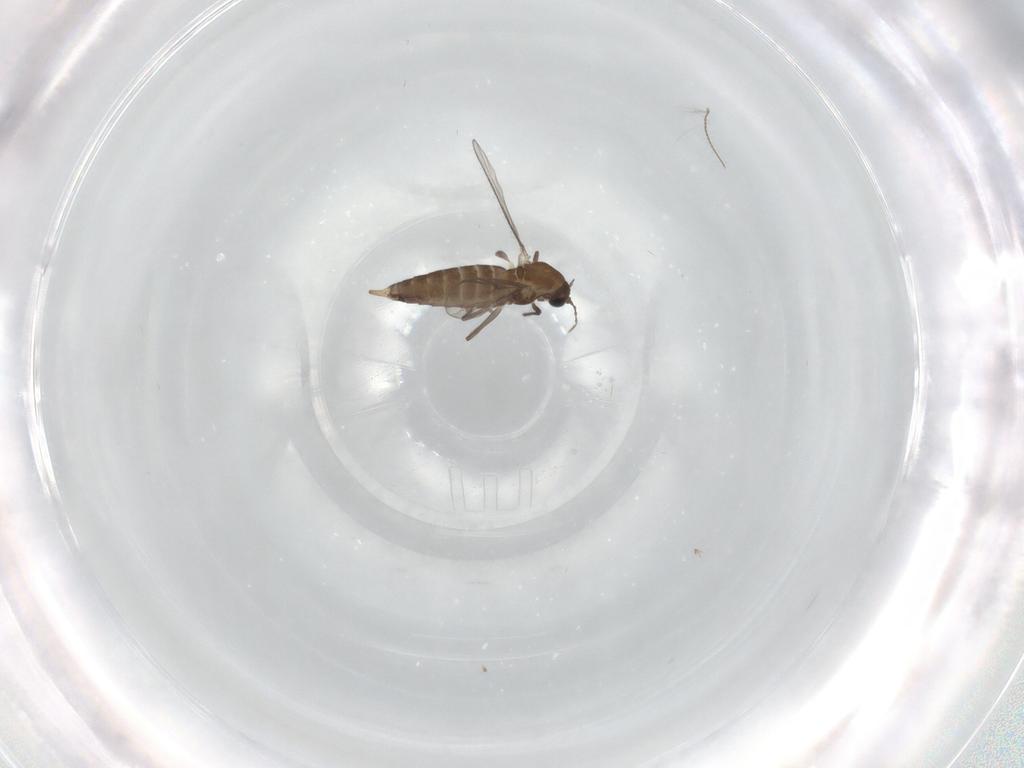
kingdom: Animalia
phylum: Arthropoda
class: Insecta
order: Diptera
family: Chironomidae
